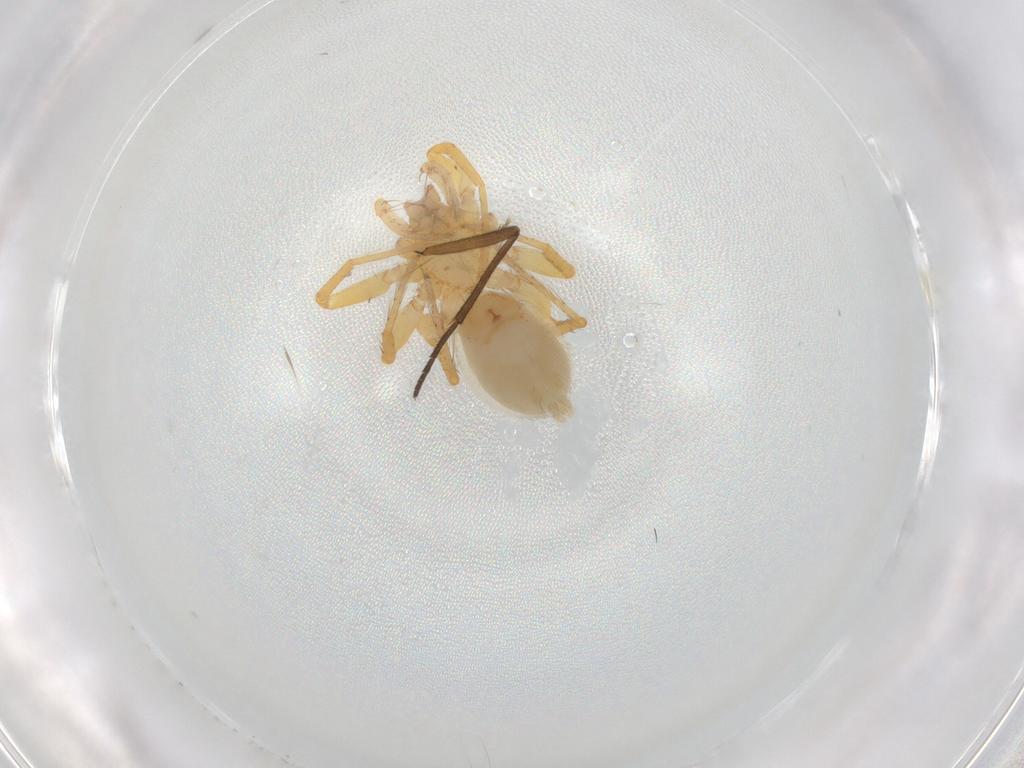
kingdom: Animalia
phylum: Arthropoda
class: Arachnida
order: Araneae
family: Oonopidae
